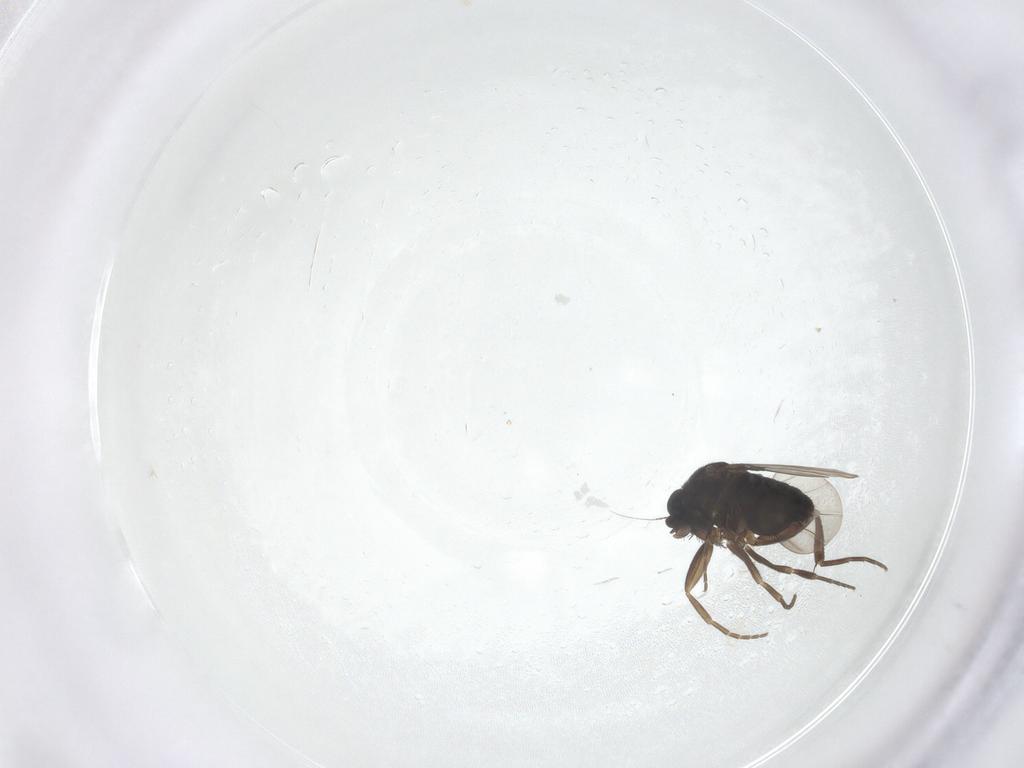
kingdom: Animalia
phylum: Arthropoda
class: Insecta
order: Diptera
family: Phoridae
